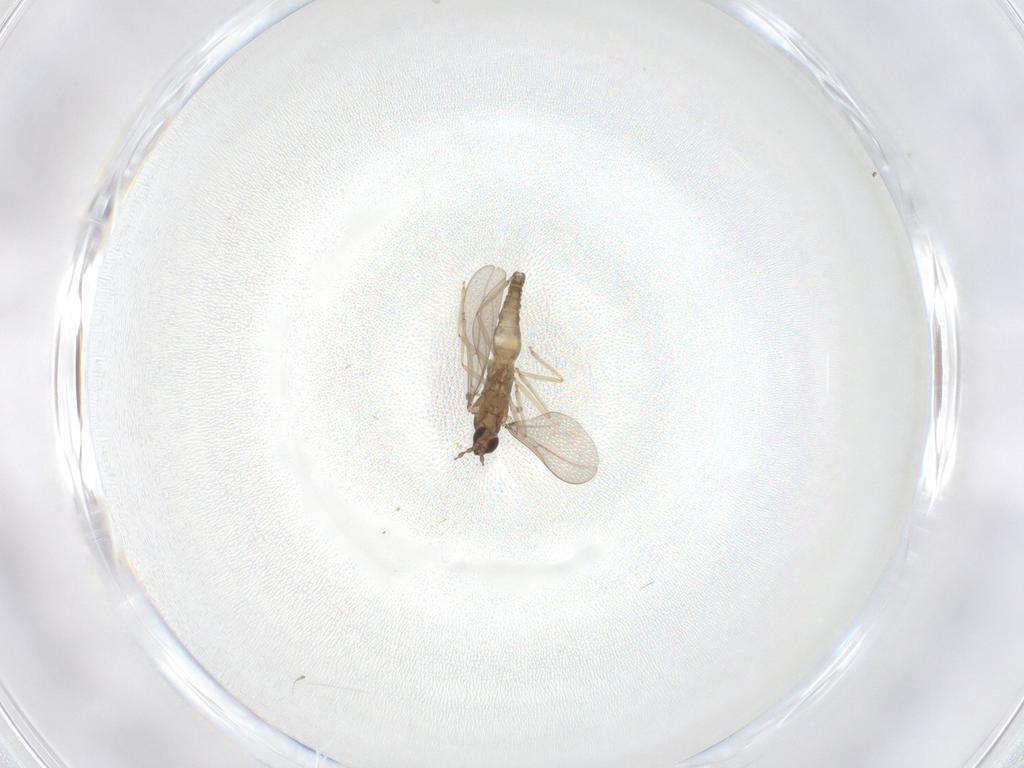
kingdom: Animalia
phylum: Arthropoda
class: Insecta
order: Diptera
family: Cecidomyiidae
